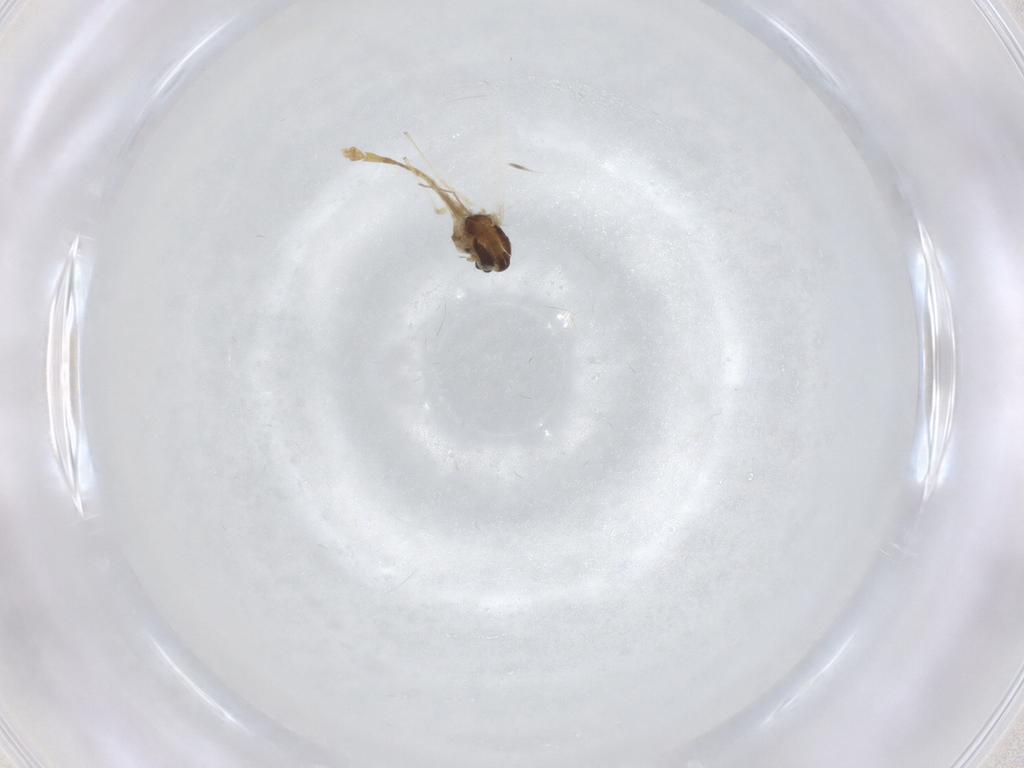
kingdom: Animalia
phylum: Arthropoda
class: Insecta
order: Diptera
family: Chironomidae
